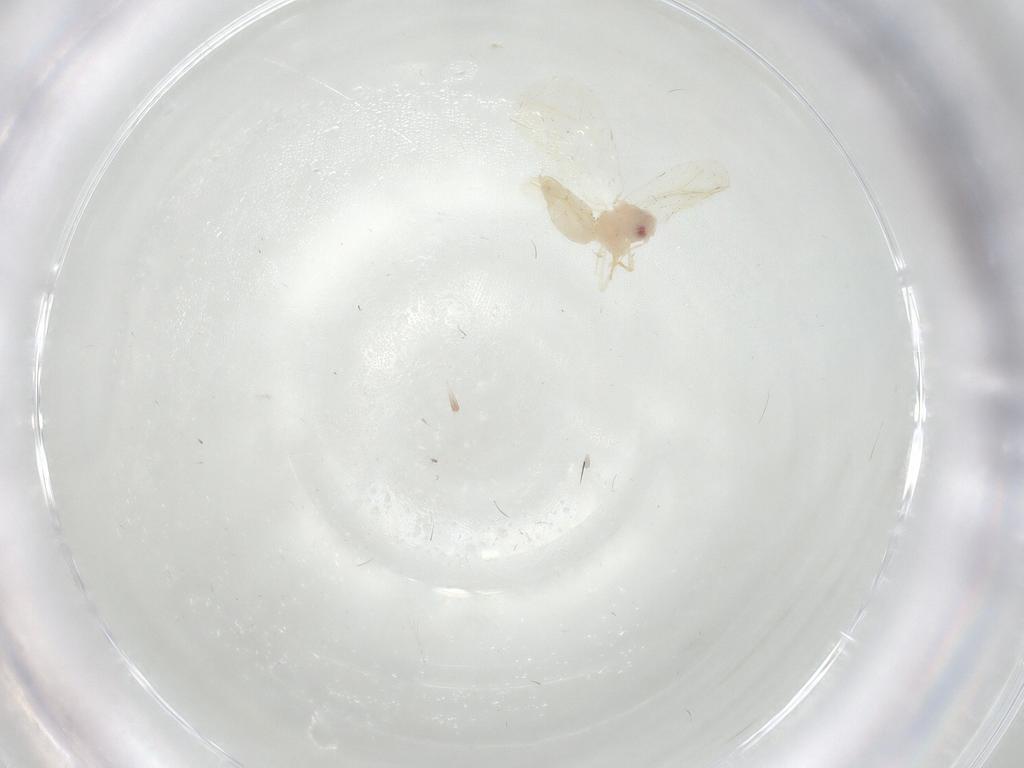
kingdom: Animalia
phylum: Arthropoda
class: Insecta
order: Hemiptera
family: Aleyrodidae
